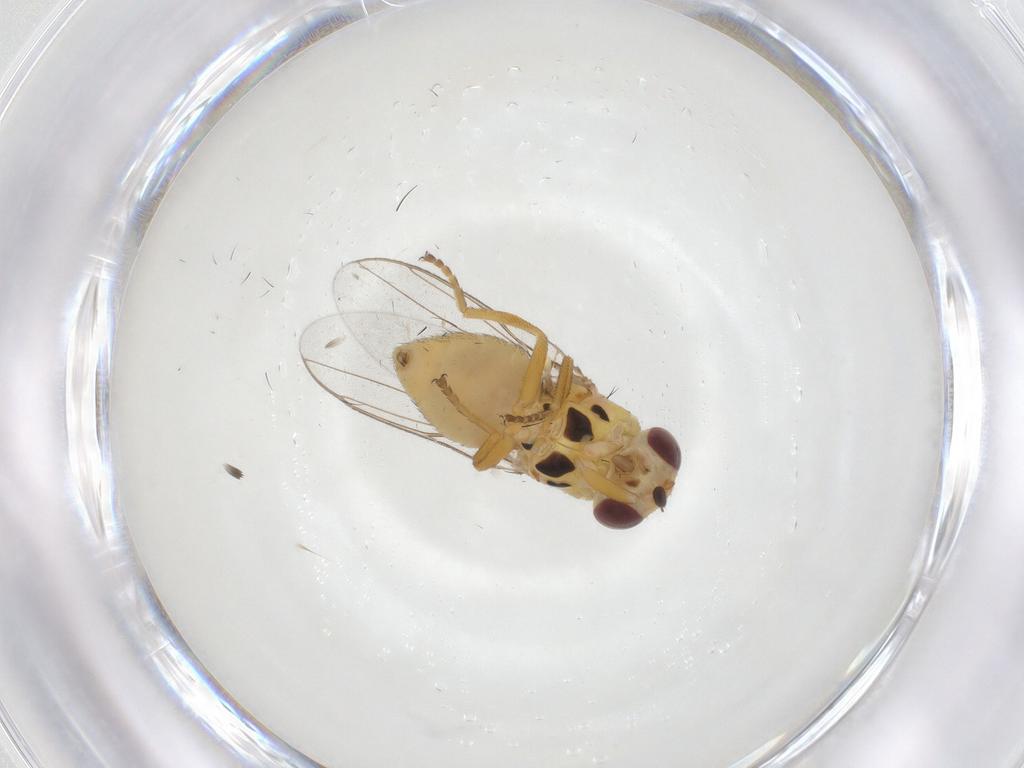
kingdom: Animalia
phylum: Arthropoda
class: Insecta
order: Diptera
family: Chloropidae
